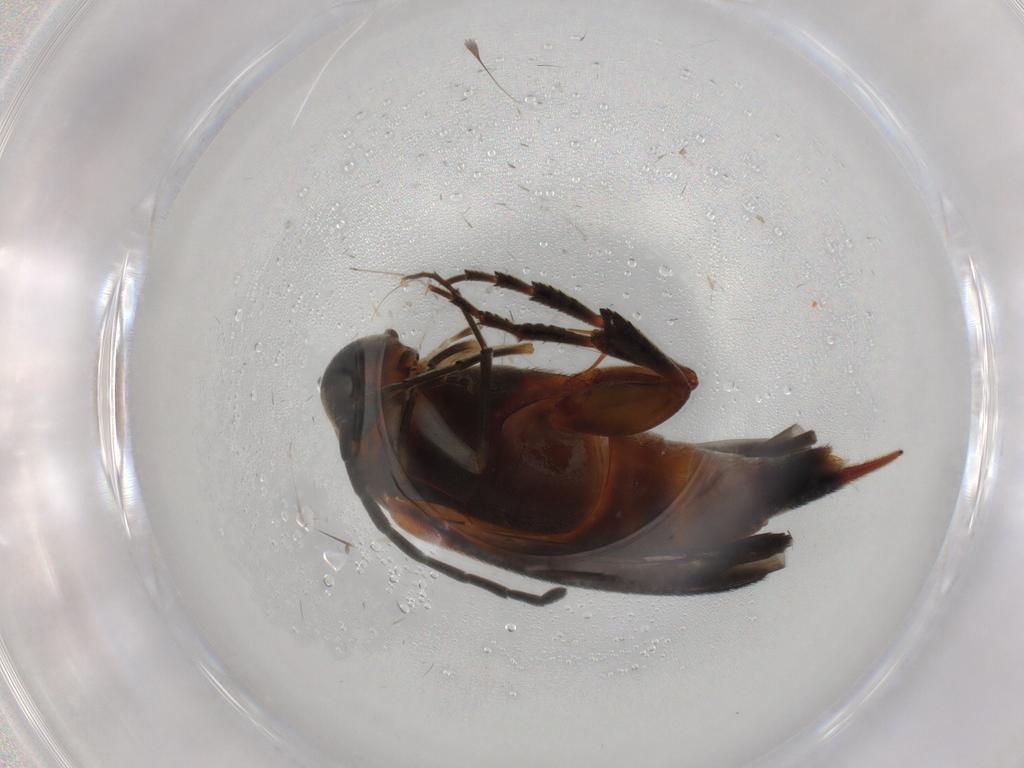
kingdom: Animalia
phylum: Arthropoda
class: Insecta
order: Coleoptera
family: Mordellidae
